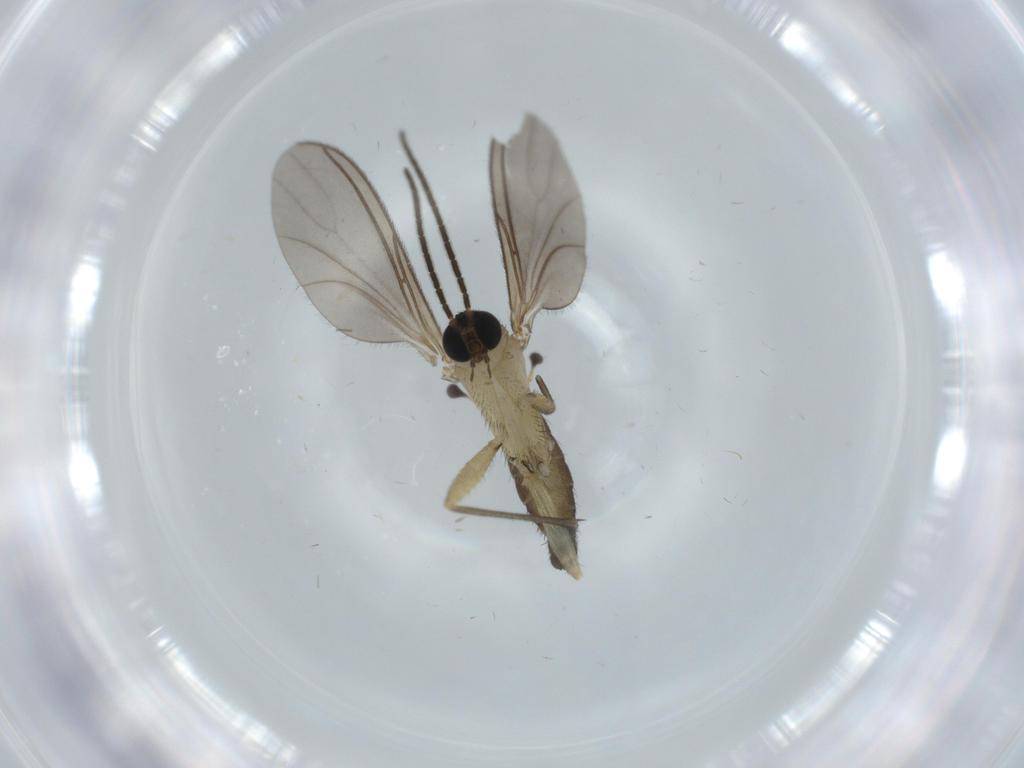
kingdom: Animalia
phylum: Arthropoda
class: Insecta
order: Diptera
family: Sciaridae
